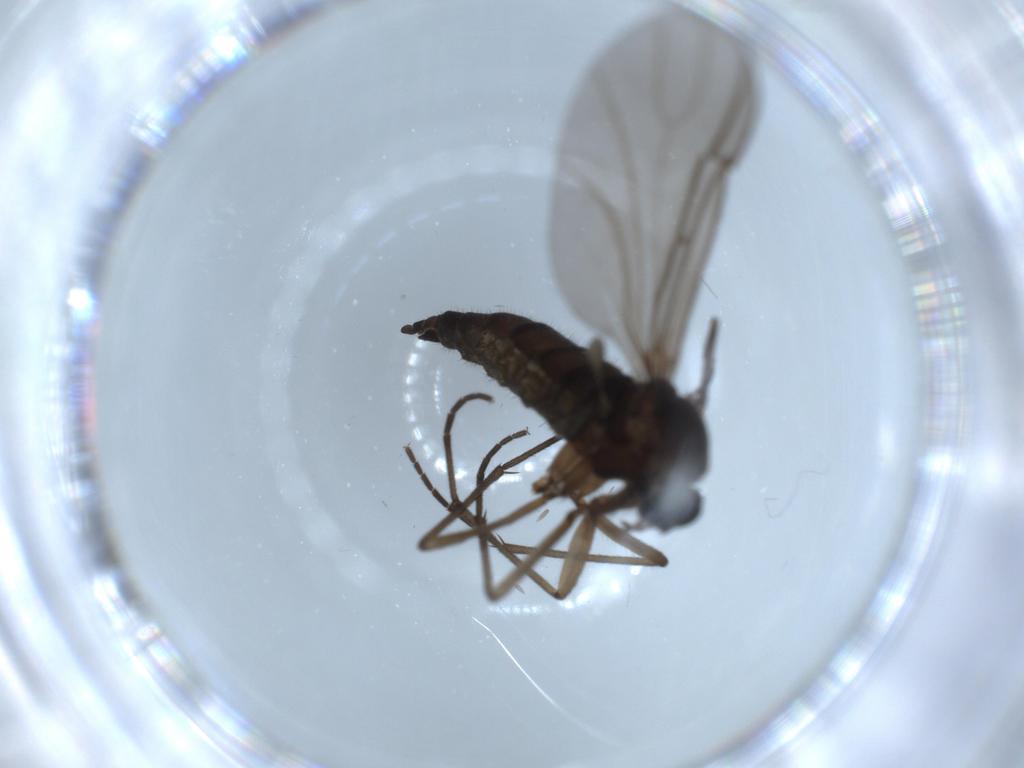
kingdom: Animalia
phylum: Arthropoda
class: Insecta
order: Diptera
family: Sciaridae
